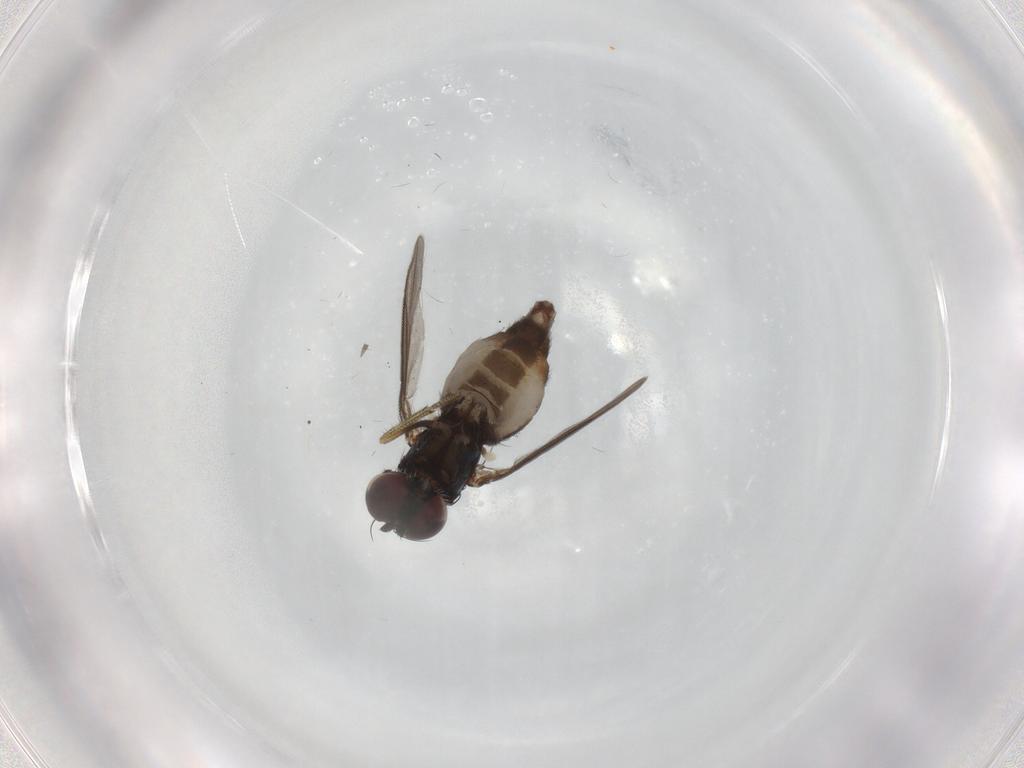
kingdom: Animalia
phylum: Arthropoda
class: Insecta
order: Diptera
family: Dolichopodidae
